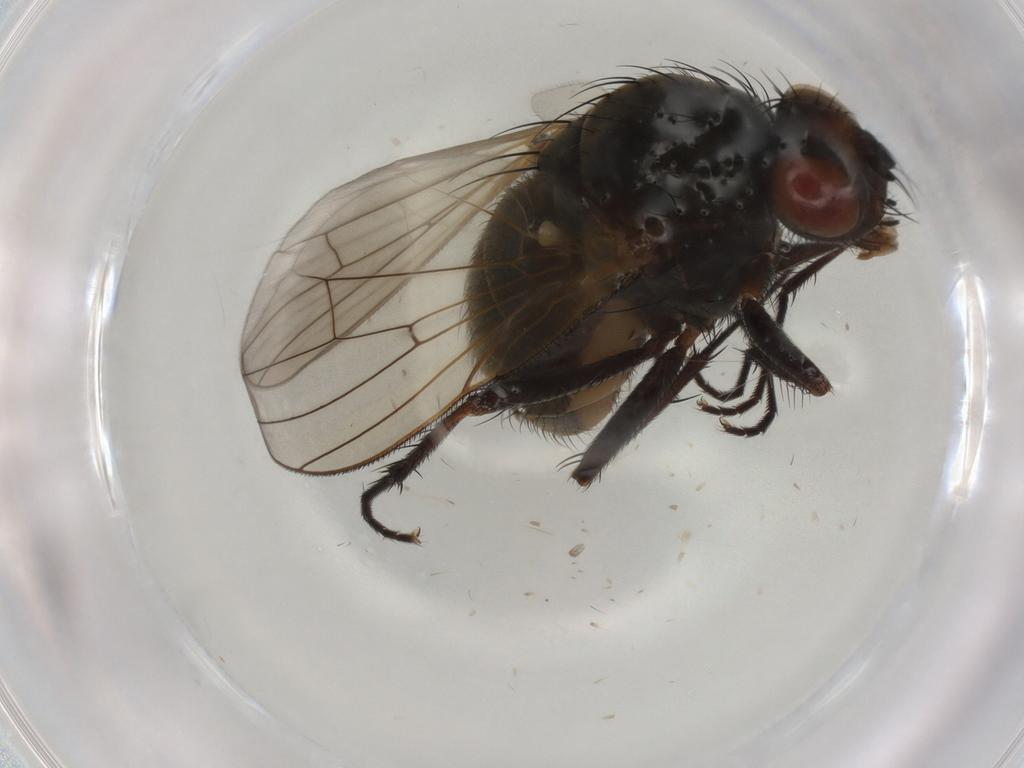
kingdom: Animalia
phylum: Arthropoda
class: Insecta
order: Diptera
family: Anthomyiidae
